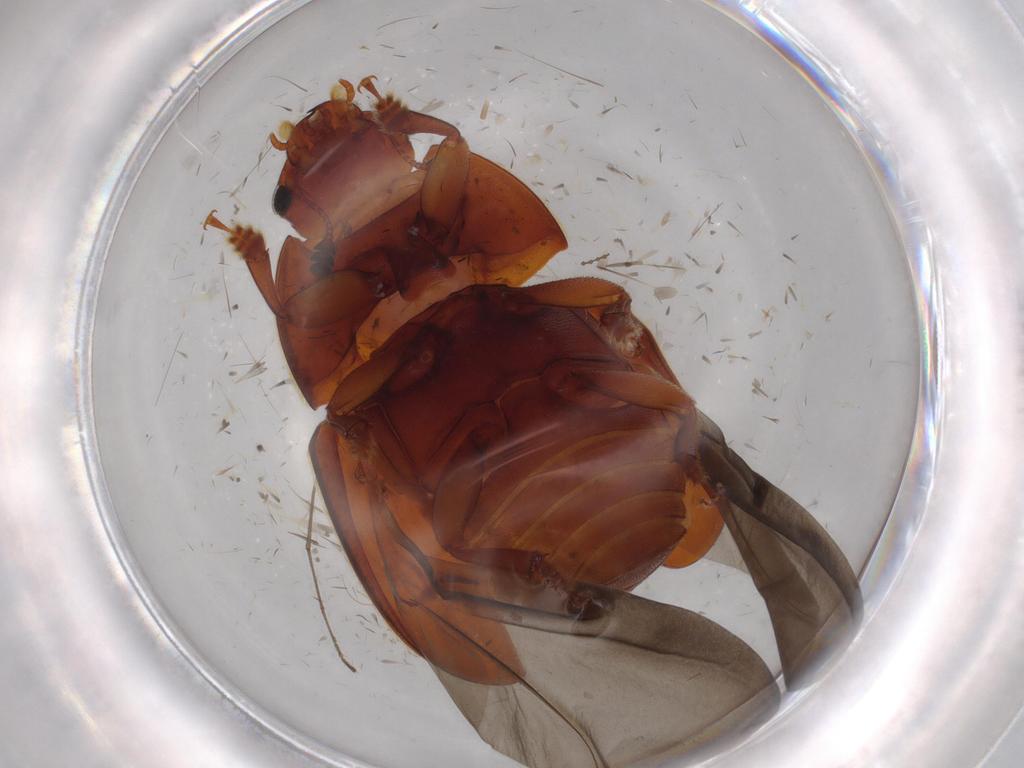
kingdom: Animalia
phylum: Arthropoda
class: Insecta
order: Coleoptera
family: Nitidulidae
